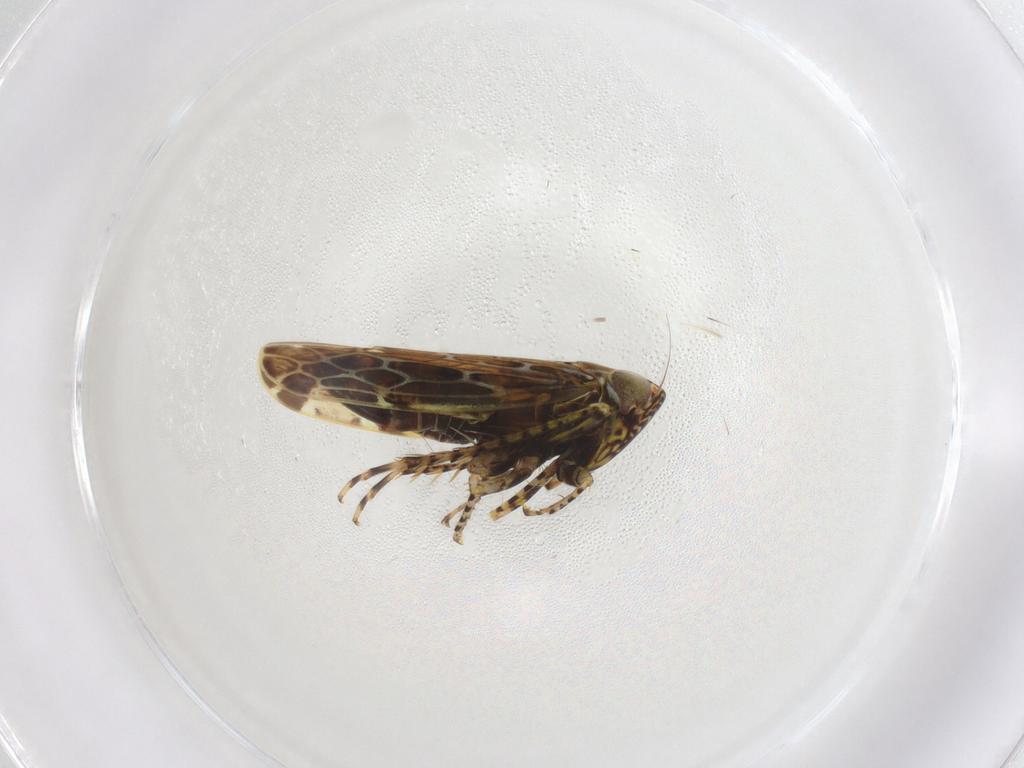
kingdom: Animalia
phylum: Arthropoda
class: Insecta
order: Hemiptera
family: Cicadellidae
